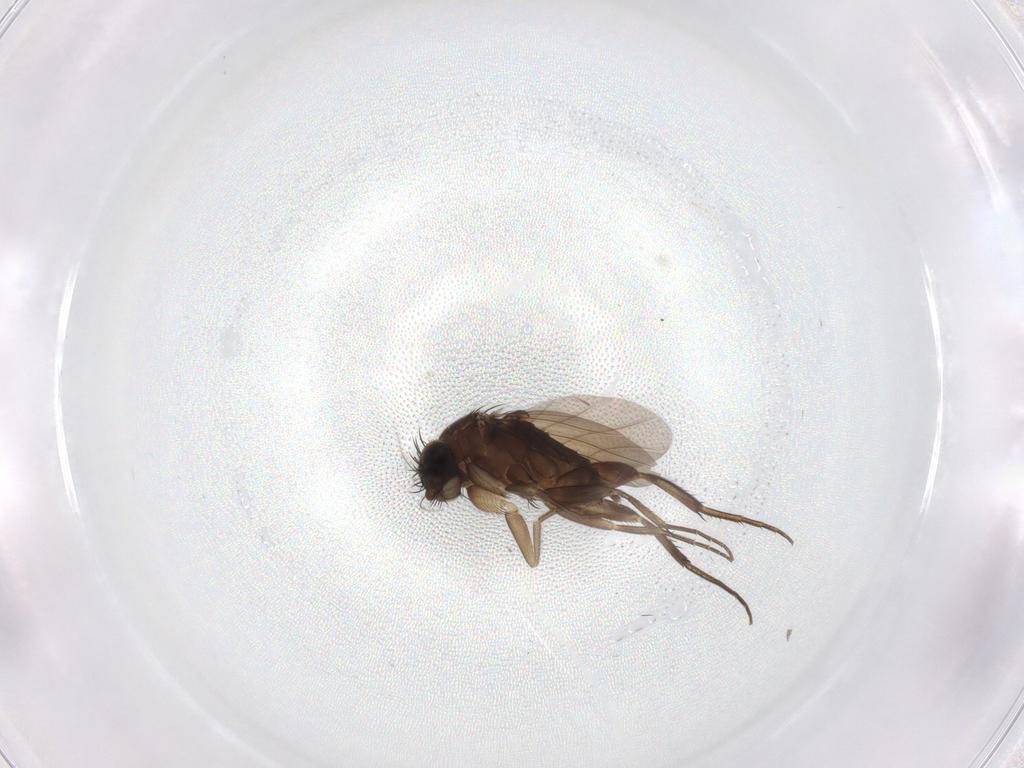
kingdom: Animalia
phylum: Arthropoda
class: Insecta
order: Diptera
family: Phoridae
